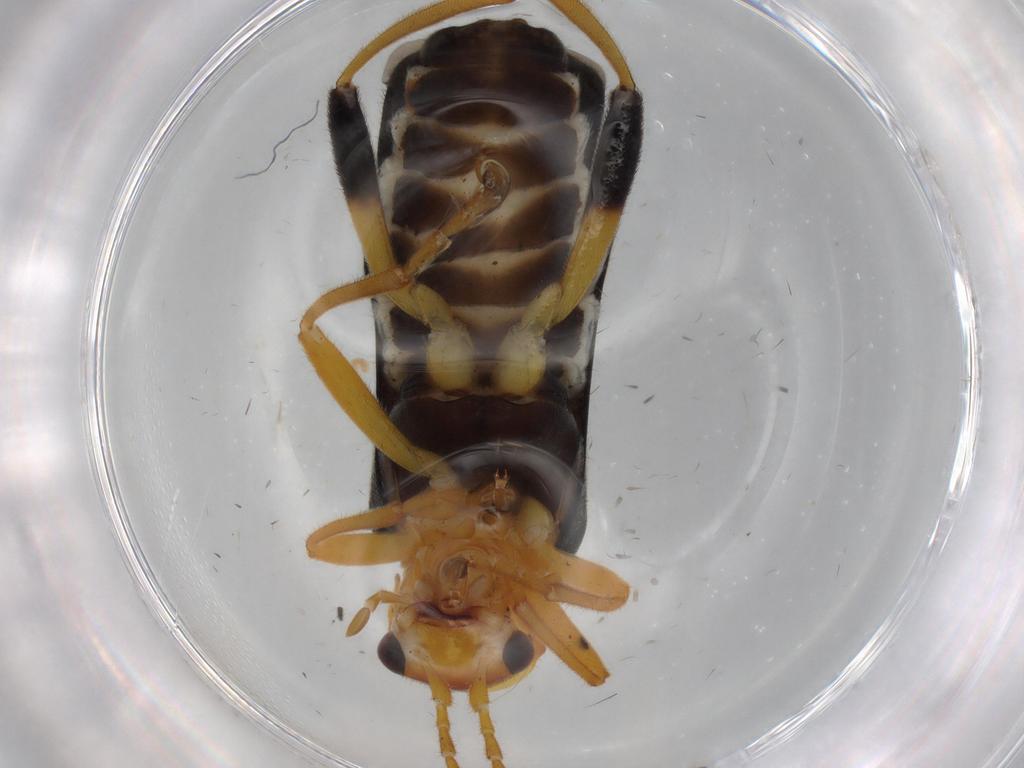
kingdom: Animalia
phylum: Arthropoda
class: Insecta
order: Coleoptera
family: Cantharidae
